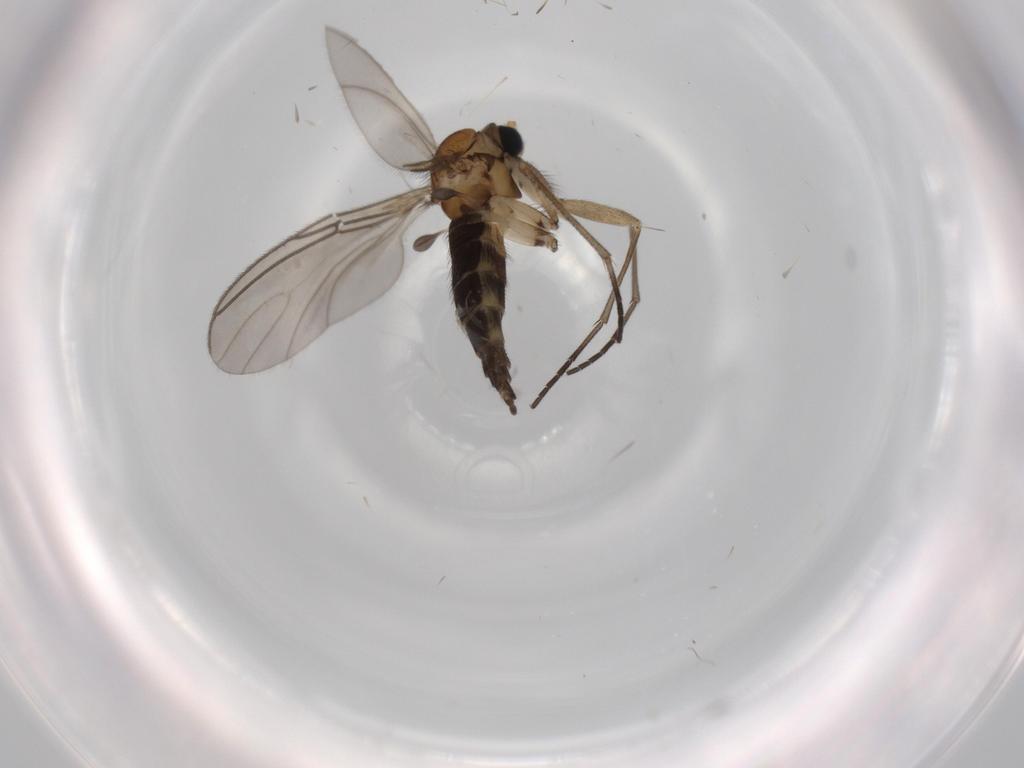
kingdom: Animalia
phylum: Arthropoda
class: Insecta
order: Diptera
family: Sciaridae
